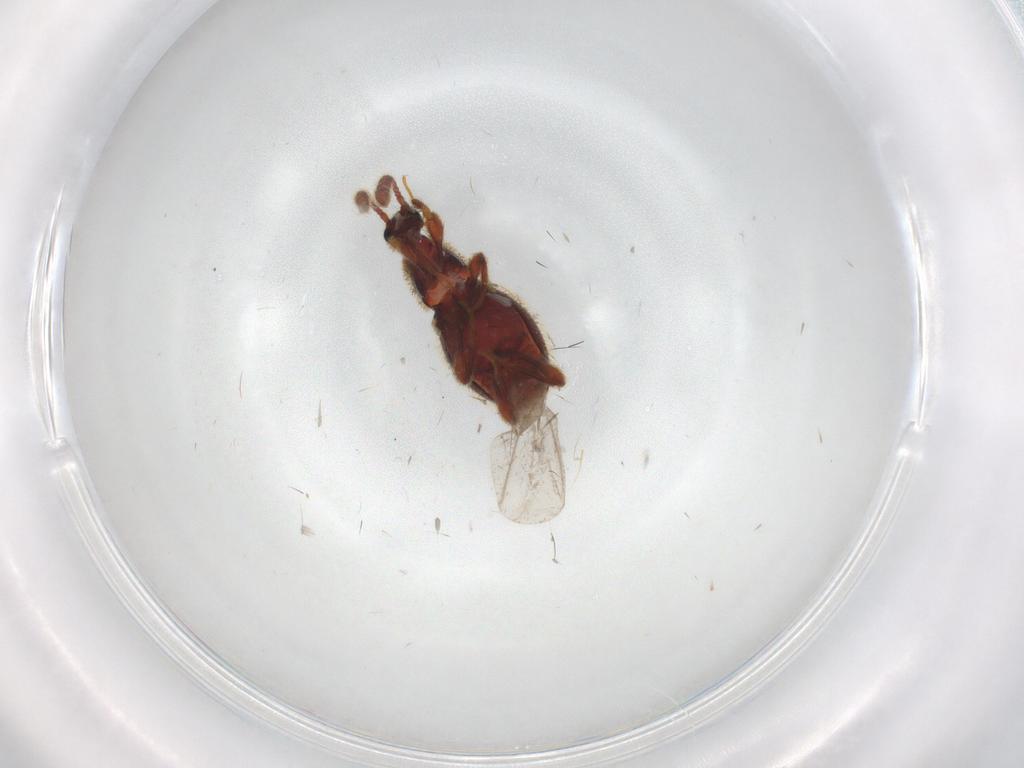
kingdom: Animalia
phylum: Arthropoda
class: Insecta
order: Coleoptera
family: Ptilodactylidae
